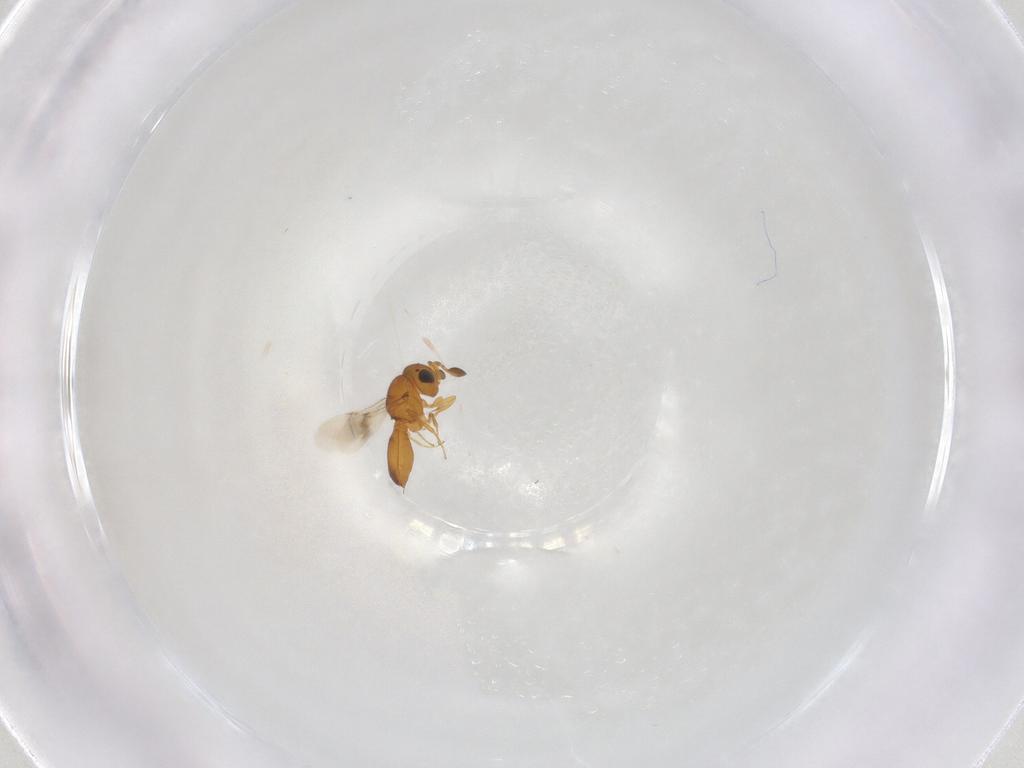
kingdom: Animalia
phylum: Arthropoda
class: Insecta
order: Hymenoptera
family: Scelionidae
